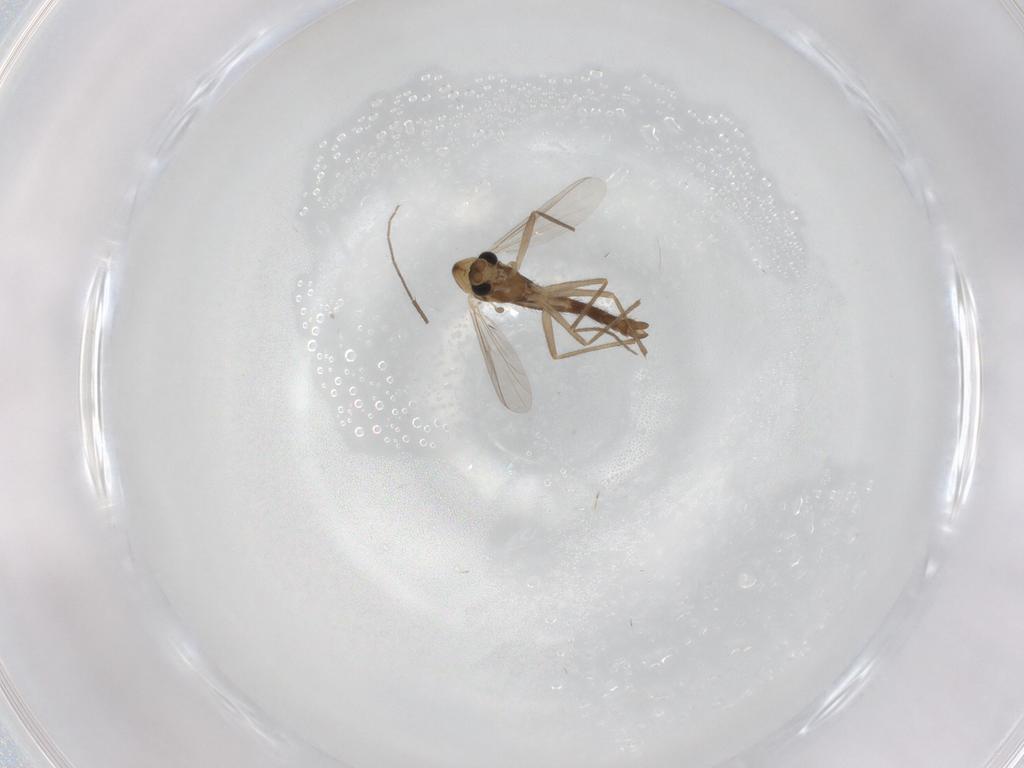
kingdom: Animalia
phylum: Arthropoda
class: Insecta
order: Diptera
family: Chironomidae
